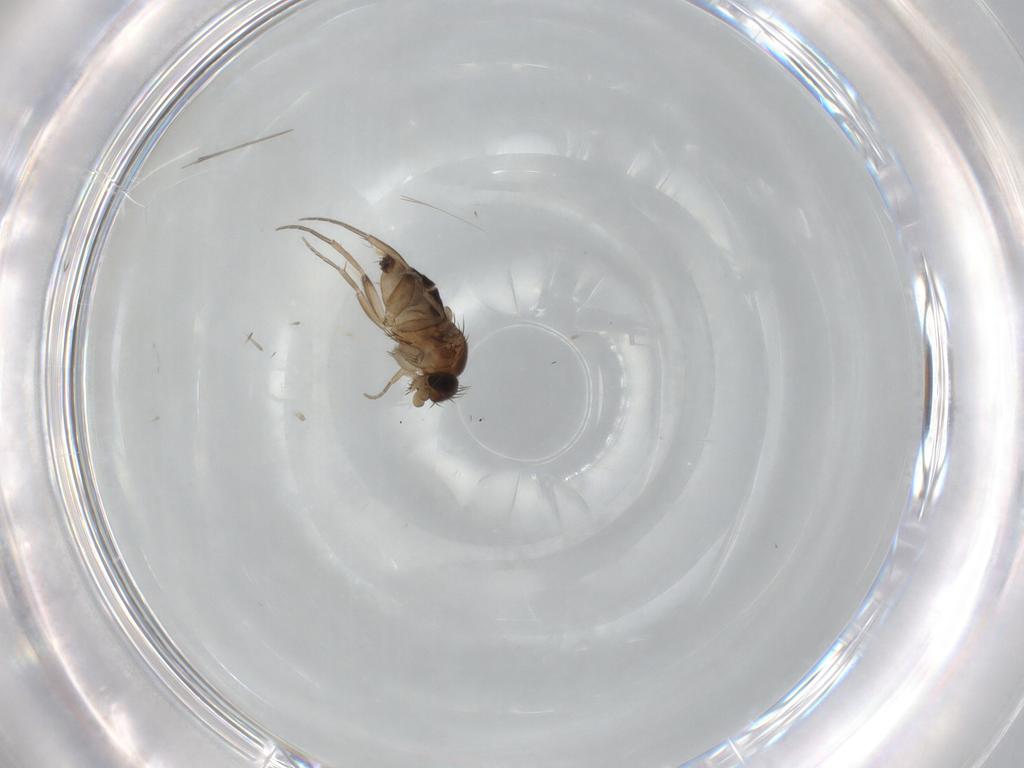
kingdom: Animalia
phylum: Arthropoda
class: Insecta
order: Diptera
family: Phoridae
